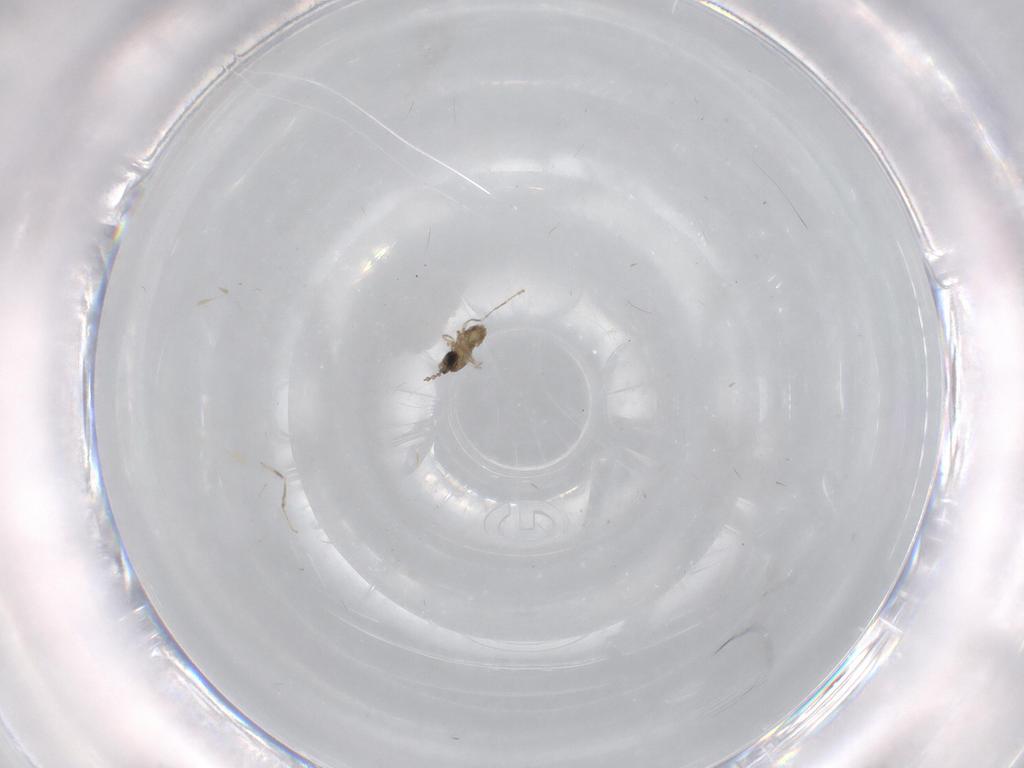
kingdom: Animalia
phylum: Arthropoda
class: Insecta
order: Diptera
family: Cecidomyiidae
